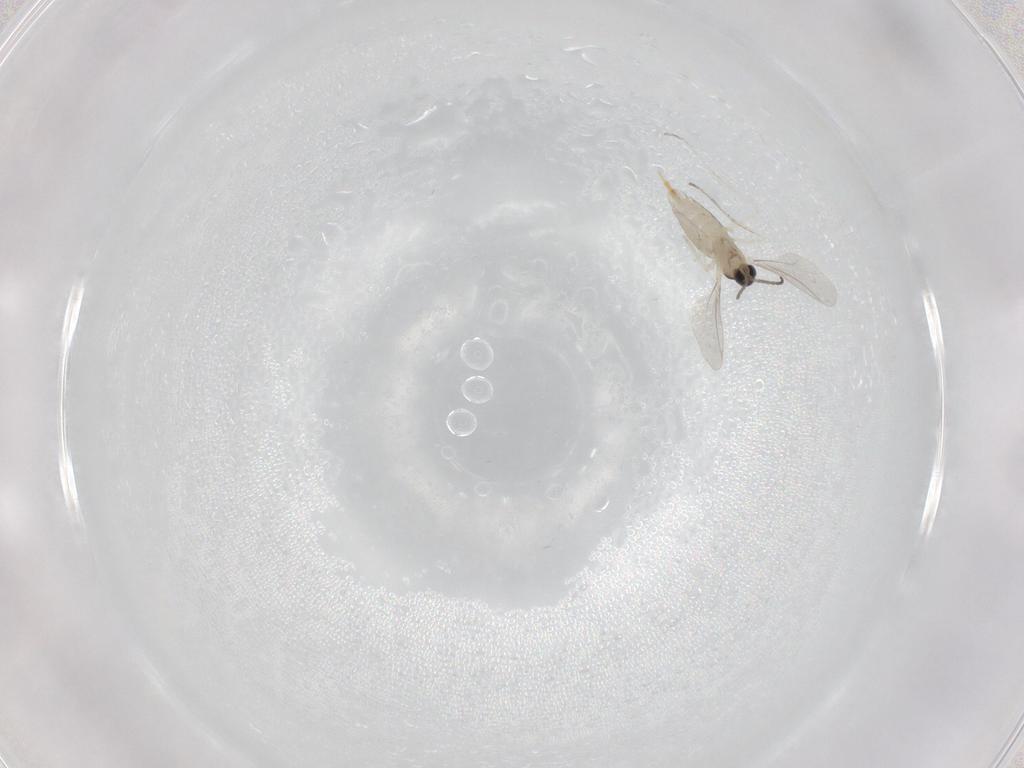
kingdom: Animalia
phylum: Arthropoda
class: Insecta
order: Diptera
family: Cecidomyiidae
